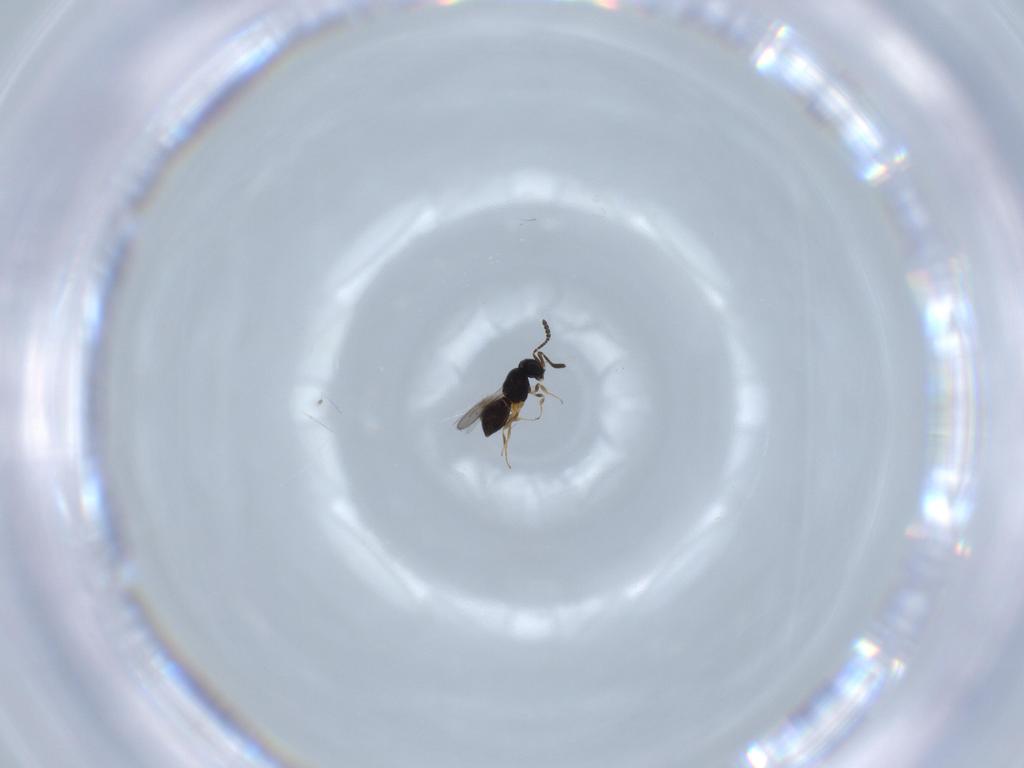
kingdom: Animalia
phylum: Arthropoda
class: Insecta
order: Hymenoptera
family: Scelionidae
